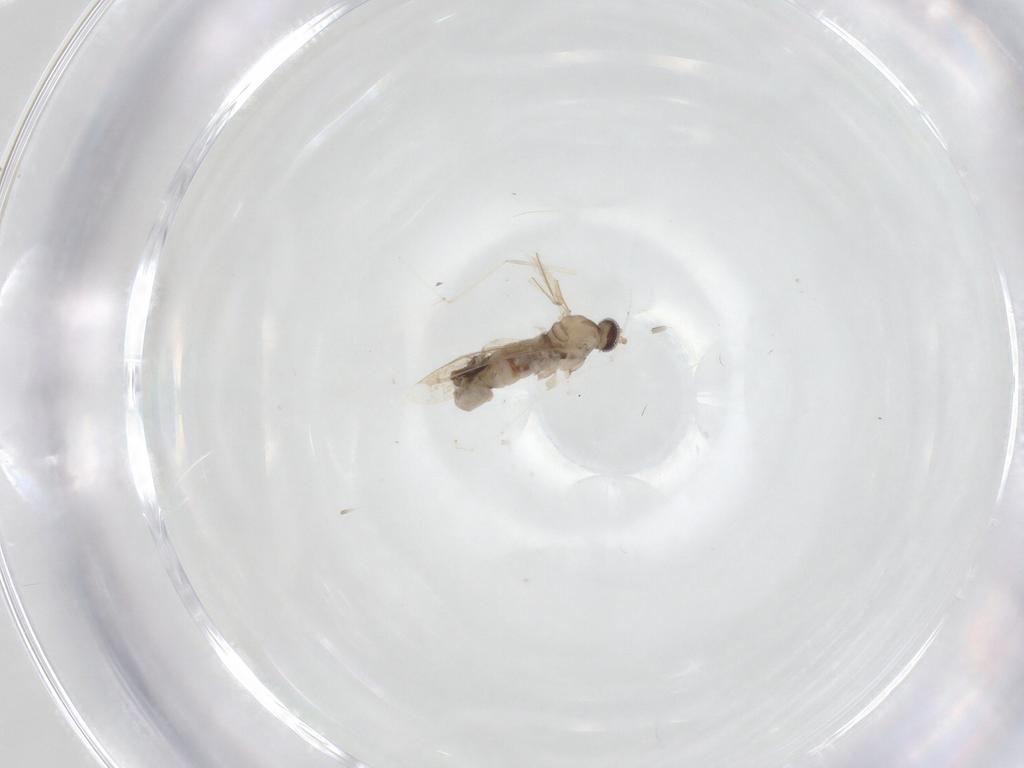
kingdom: Animalia
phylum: Arthropoda
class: Insecta
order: Diptera
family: Cecidomyiidae
